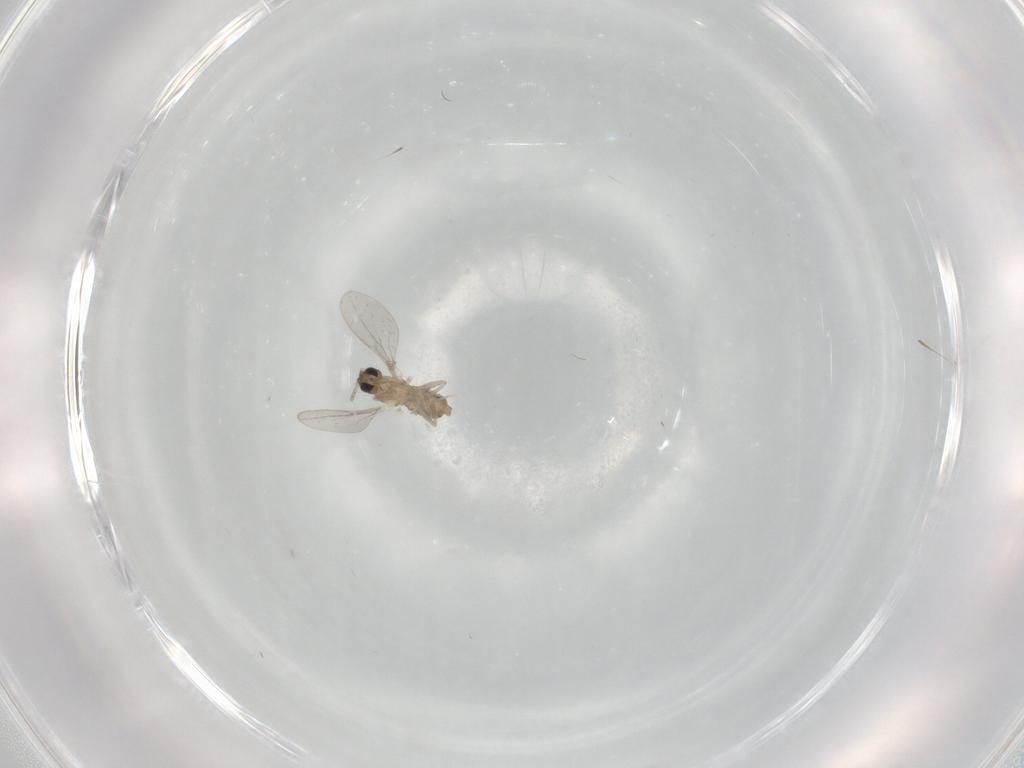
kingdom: Animalia
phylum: Arthropoda
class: Insecta
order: Diptera
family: Cecidomyiidae
